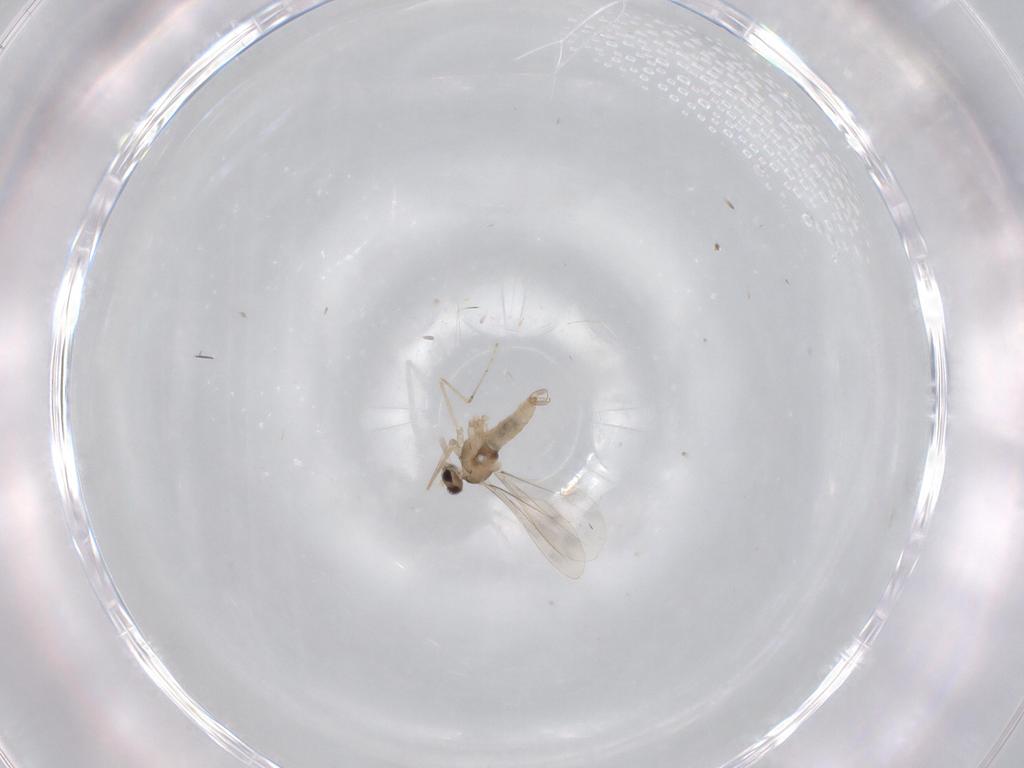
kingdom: Animalia
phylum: Arthropoda
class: Insecta
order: Diptera
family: Cecidomyiidae
